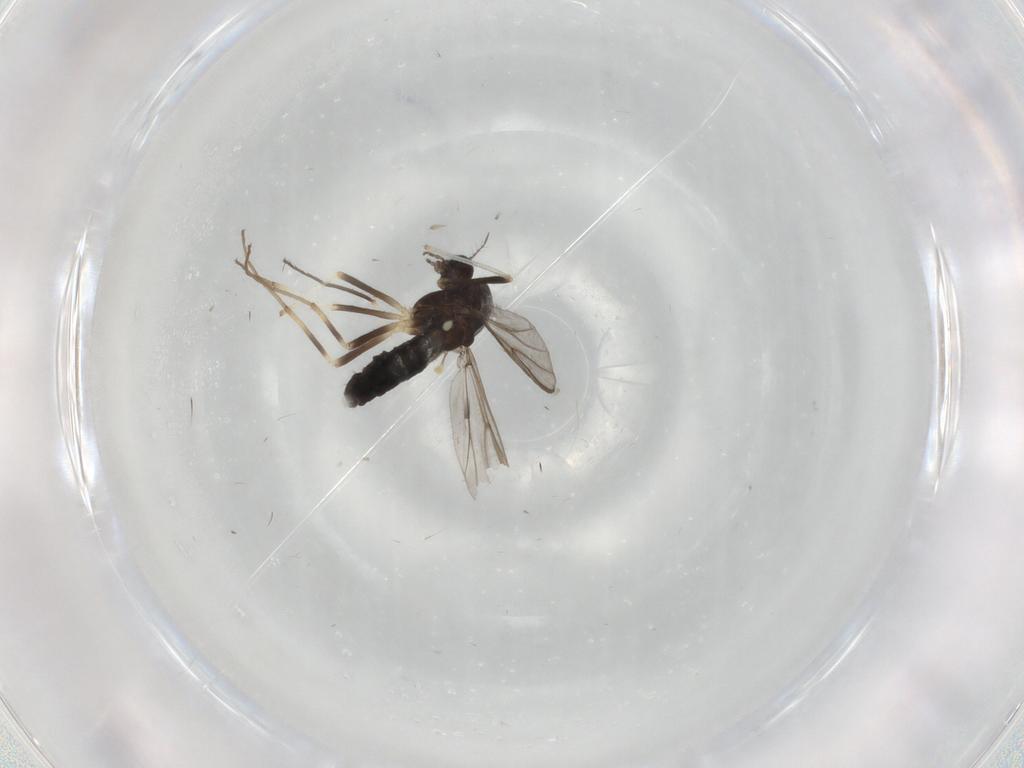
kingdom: Animalia
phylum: Arthropoda
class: Insecta
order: Diptera
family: Chironomidae
